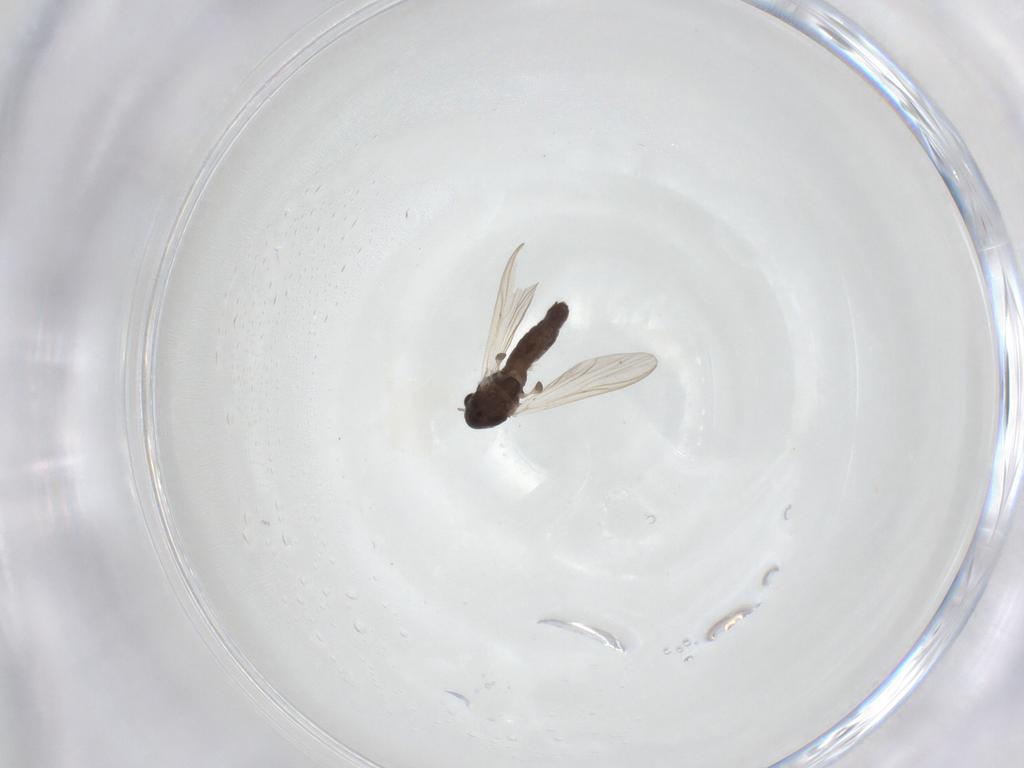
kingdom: Animalia
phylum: Arthropoda
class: Insecta
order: Diptera
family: Chironomidae
